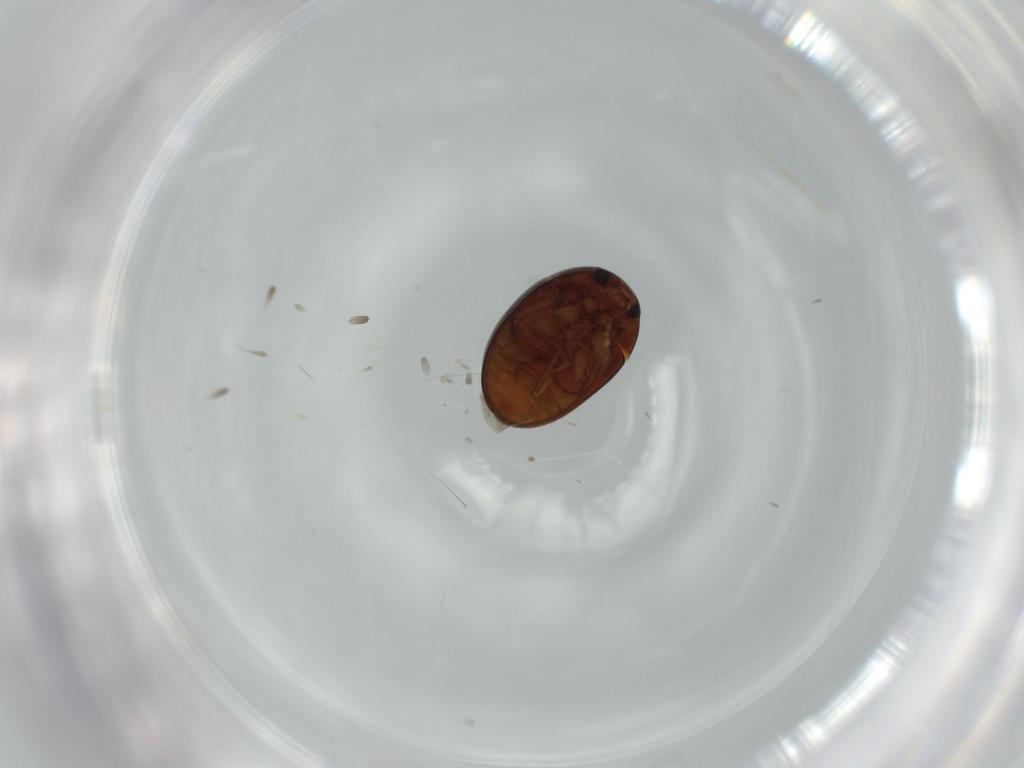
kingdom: Animalia
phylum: Arthropoda
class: Insecta
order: Coleoptera
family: Phalacridae
